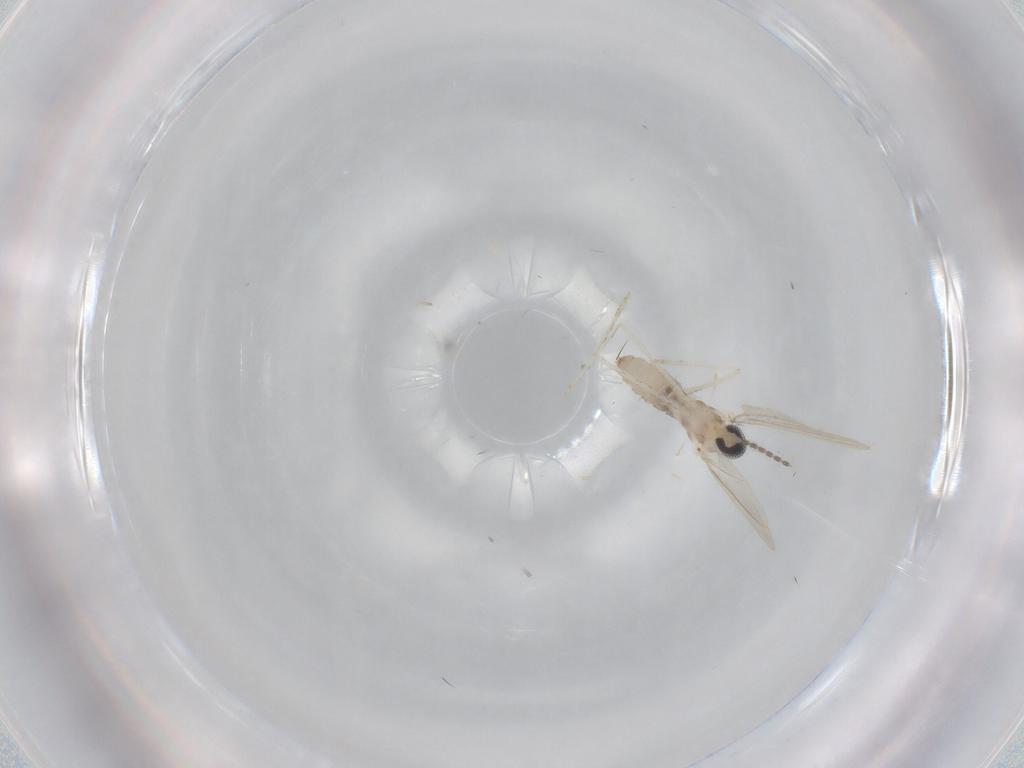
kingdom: Animalia
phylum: Arthropoda
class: Insecta
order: Diptera
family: Cecidomyiidae
